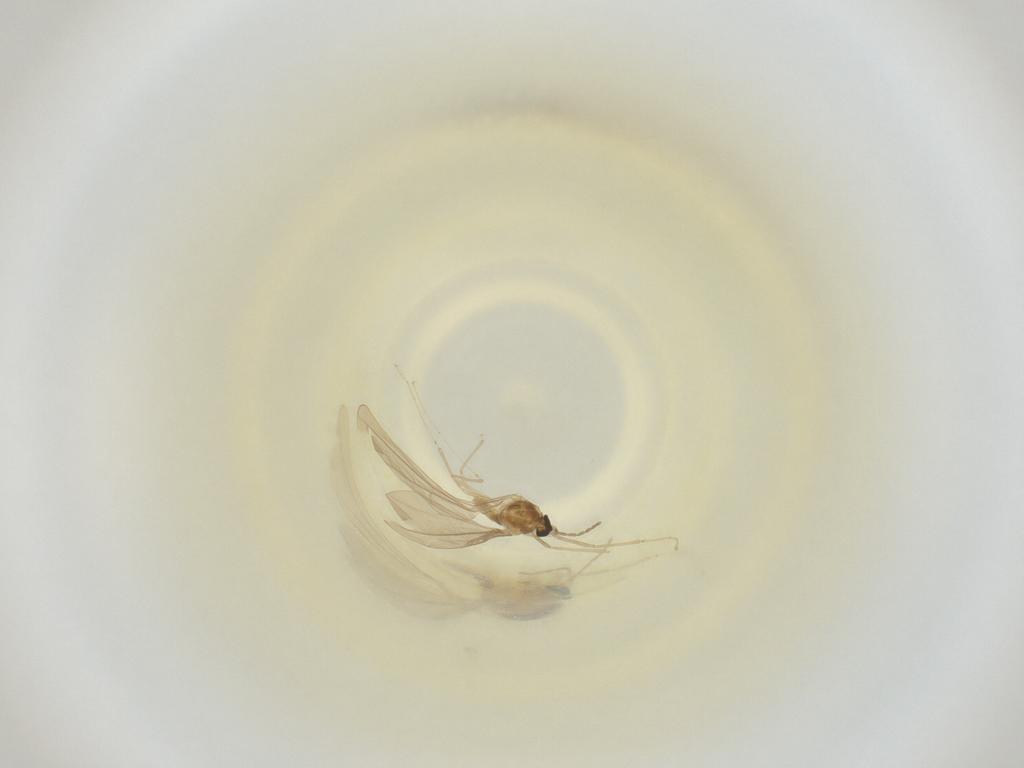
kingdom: Animalia
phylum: Arthropoda
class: Insecta
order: Diptera
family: Cecidomyiidae
